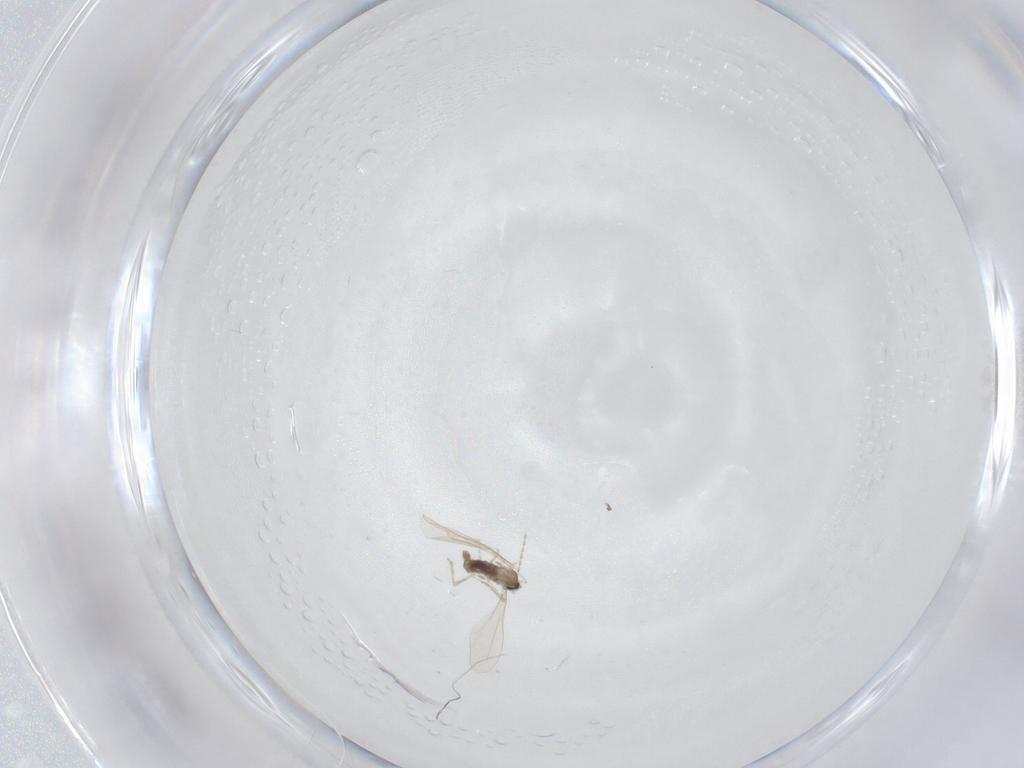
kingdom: Animalia
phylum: Arthropoda
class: Insecta
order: Diptera
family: Cecidomyiidae
